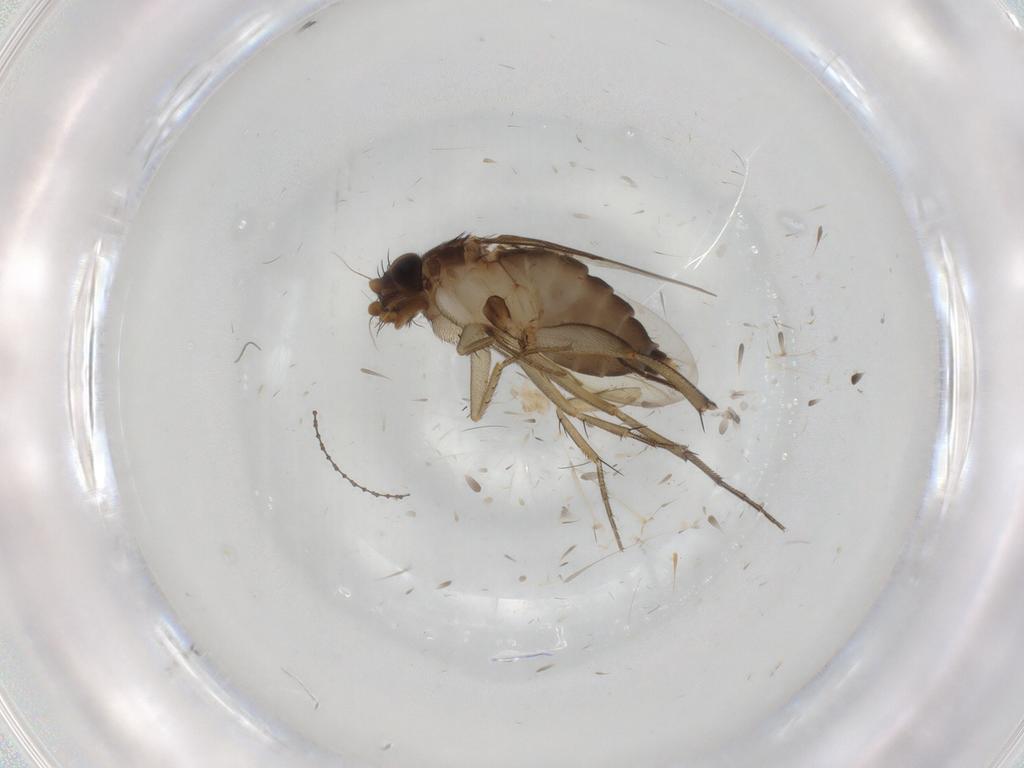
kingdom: Animalia
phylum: Arthropoda
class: Insecta
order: Diptera
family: Phoridae
